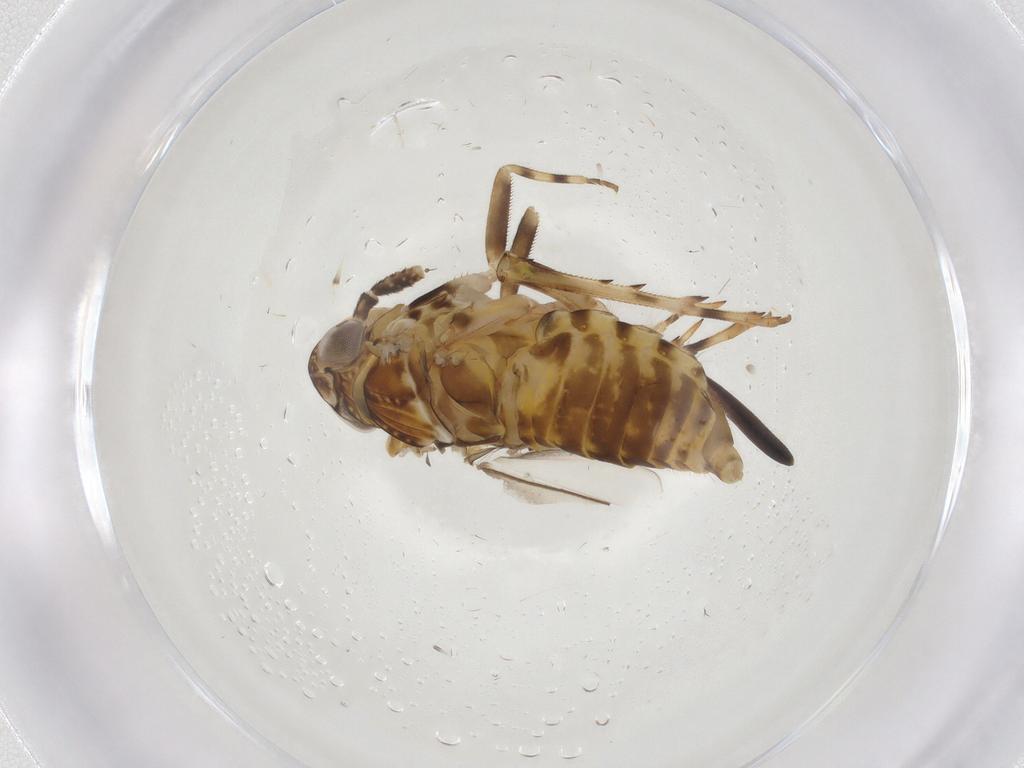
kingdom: Animalia
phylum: Arthropoda
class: Insecta
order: Hemiptera
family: Delphacidae
